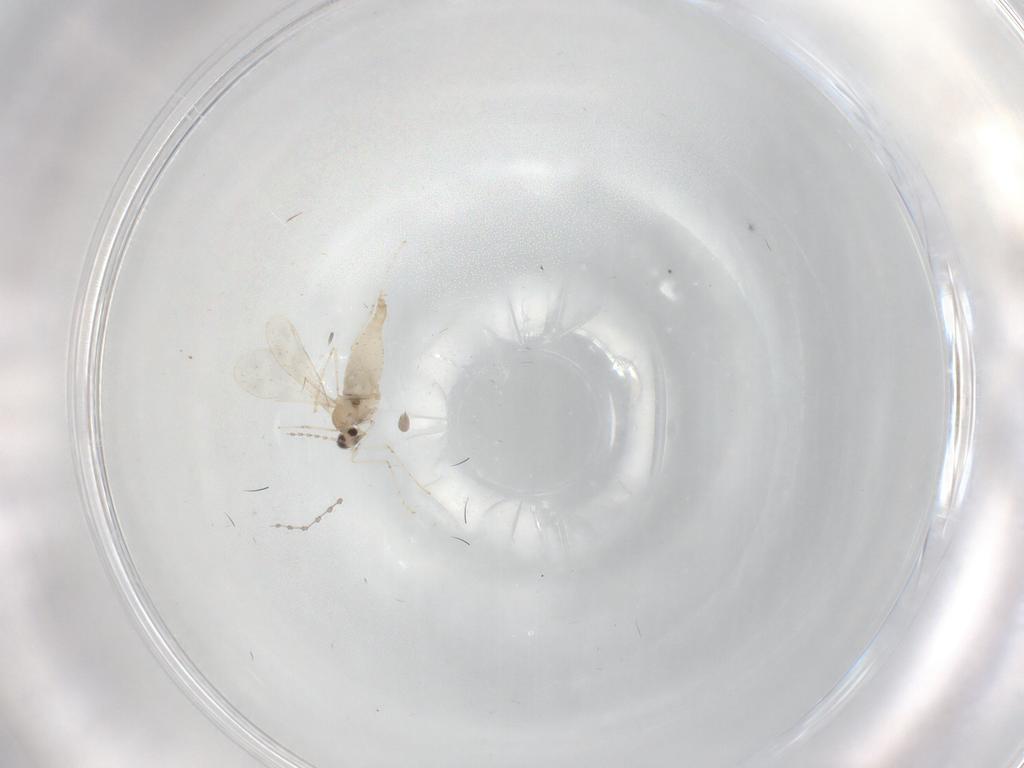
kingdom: Animalia
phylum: Arthropoda
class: Insecta
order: Diptera
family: Cecidomyiidae
